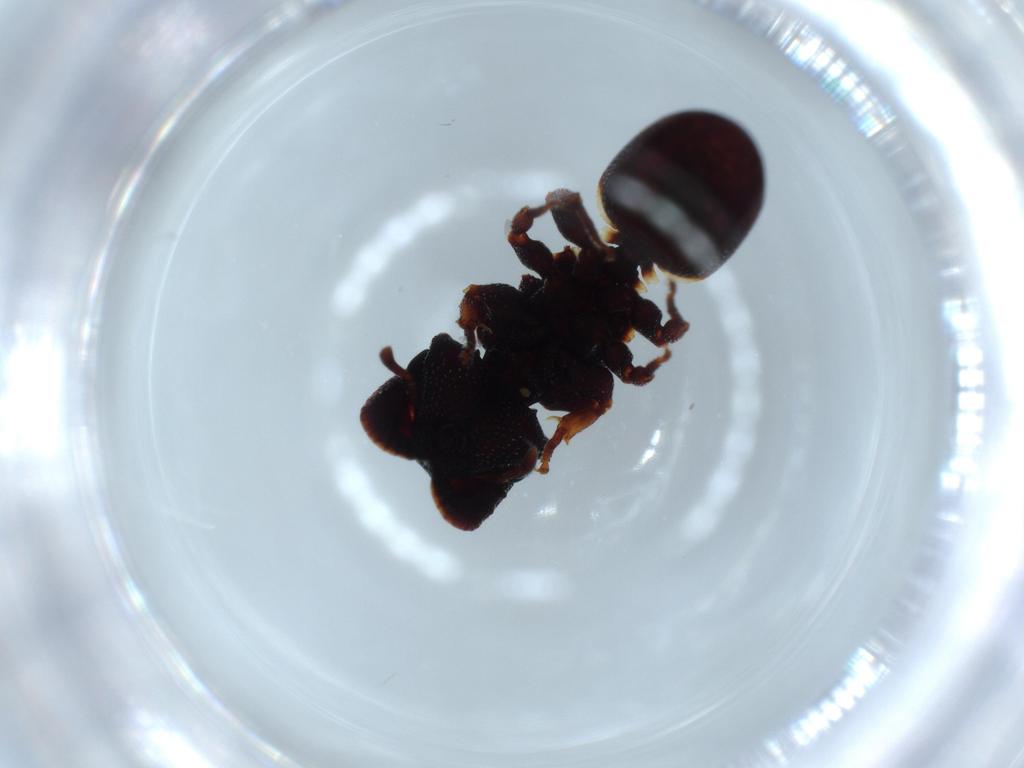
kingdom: Animalia
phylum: Arthropoda
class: Insecta
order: Hymenoptera
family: Formicidae
